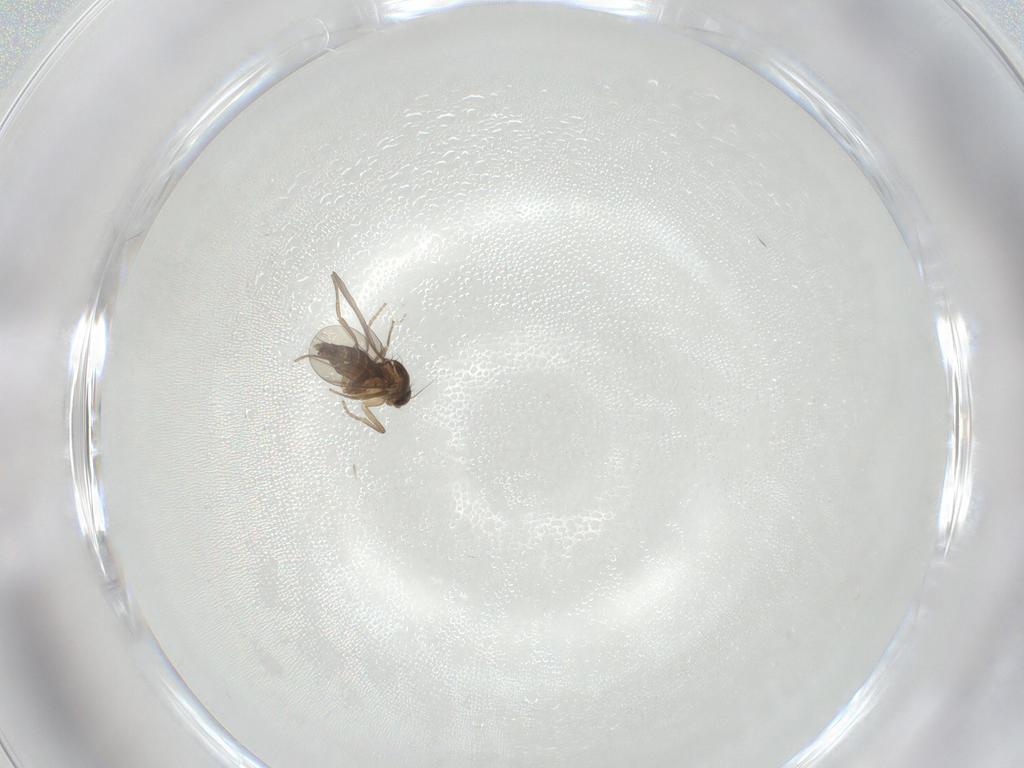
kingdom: Animalia
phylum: Arthropoda
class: Insecta
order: Diptera
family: Phoridae
